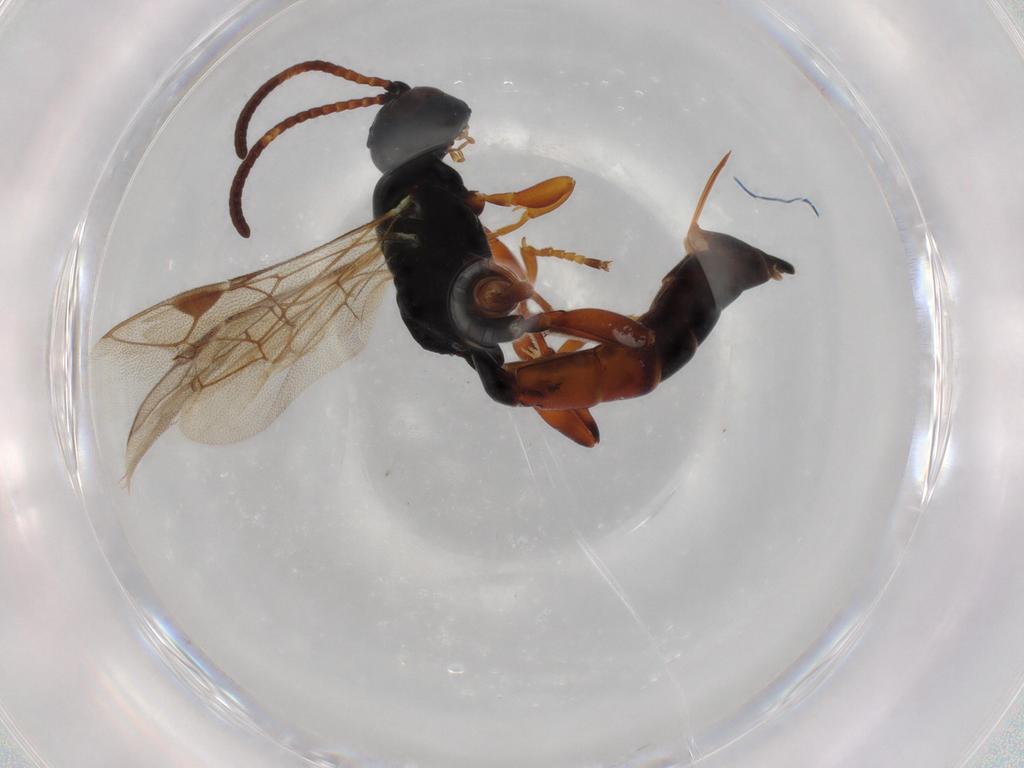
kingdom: Animalia
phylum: Arthropoda
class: Insecta
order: Hymenoptera
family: Ichneumonidae
